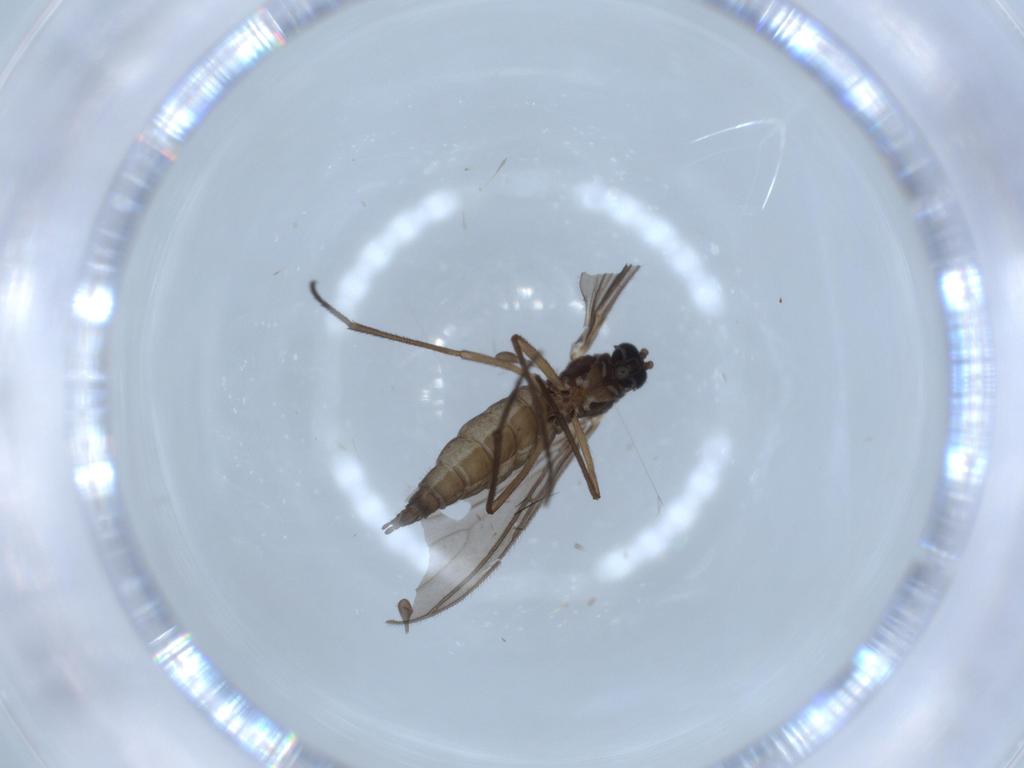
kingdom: Animalia
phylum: Arthropoda
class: Insecta
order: Diptera
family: Sciaridae
